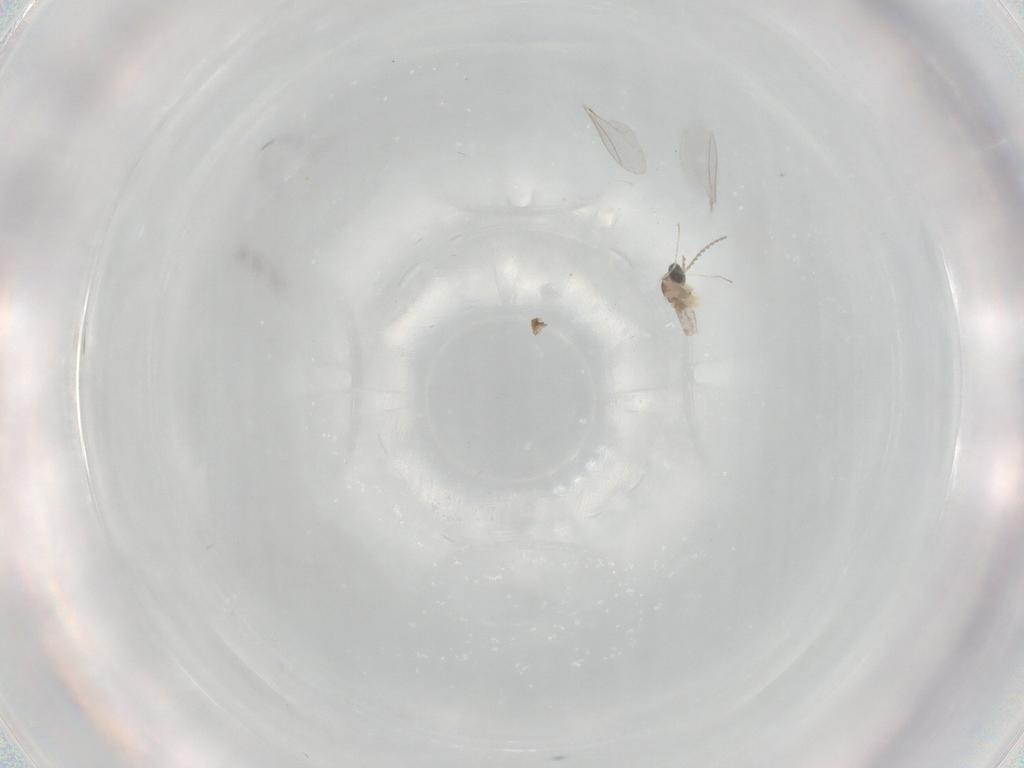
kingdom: Animalia
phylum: Arthropoda
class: Insecta
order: Diptera
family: Cecidomyiidae
